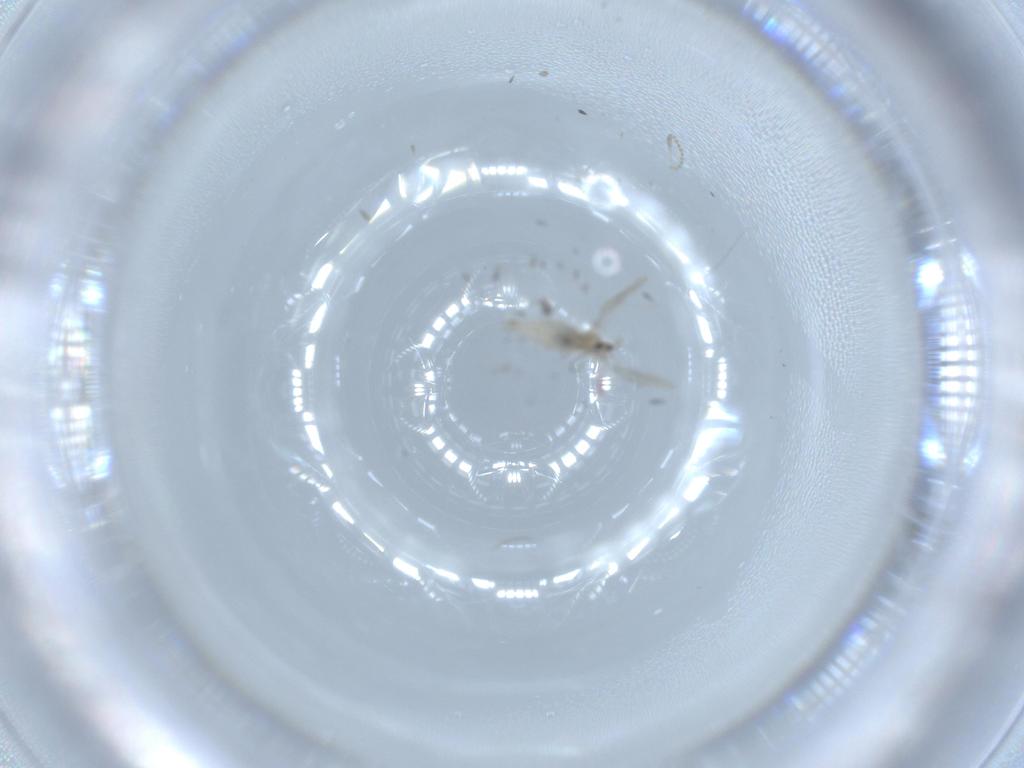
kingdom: Animalia
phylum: Arthropoda
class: Insecta
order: Diptera
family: Cecidomyiidae
